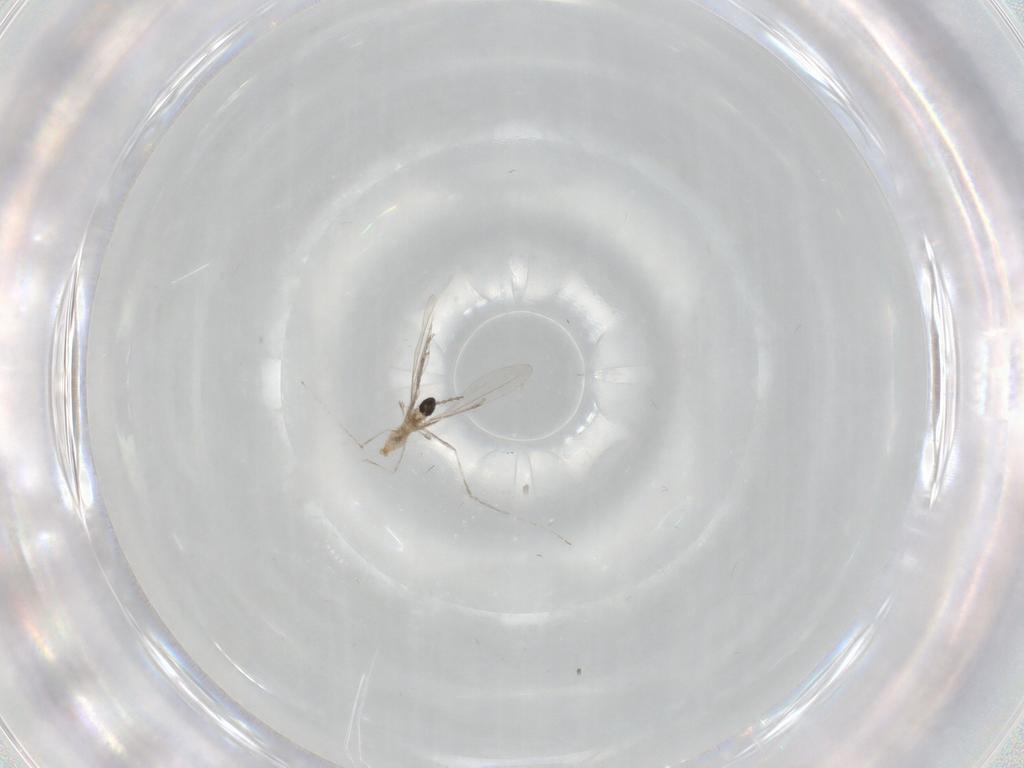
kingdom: Animalia
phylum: Arthropoda
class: Insecta
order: Diptera
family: Cecidomyiidae
